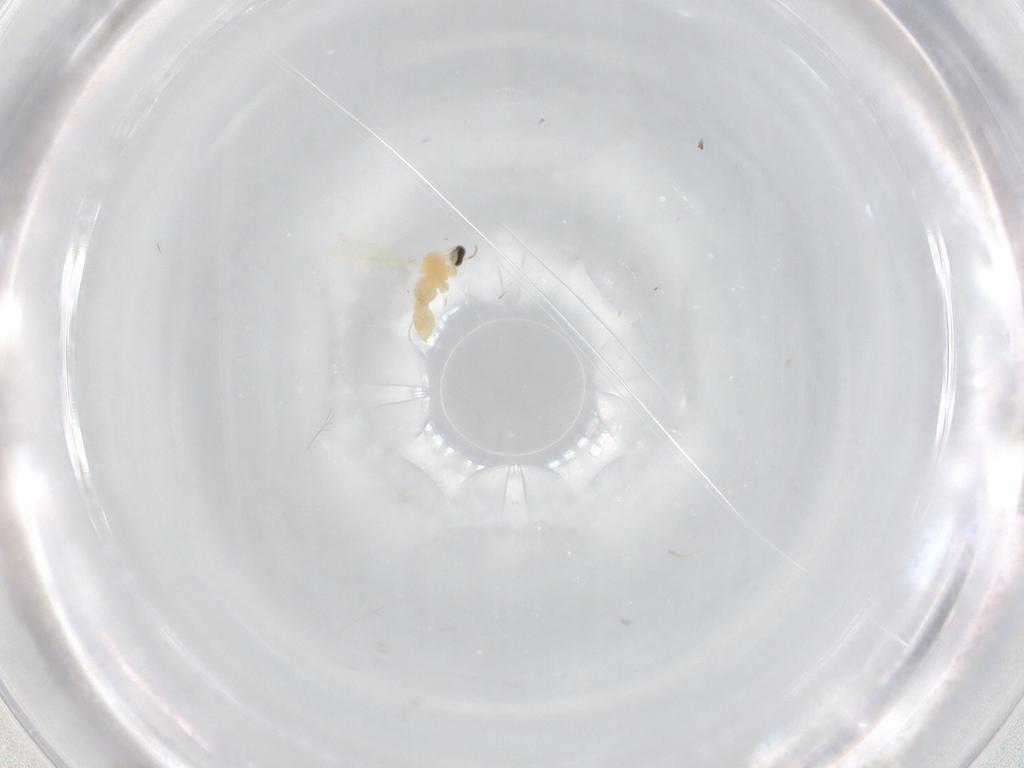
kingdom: Animalia
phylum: Arthropoda
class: Insecta
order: Diptera
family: Cecidomyiidae
